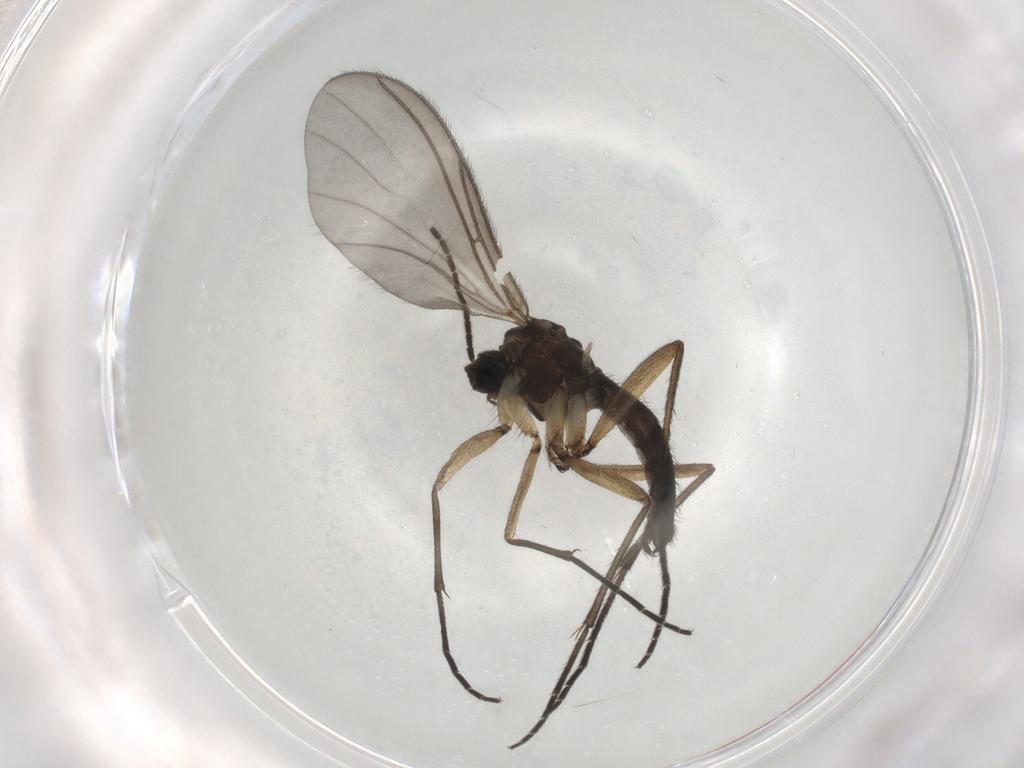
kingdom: Animalia
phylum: Arthropoda
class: Insecta
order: Diptera
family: Sciaridae
